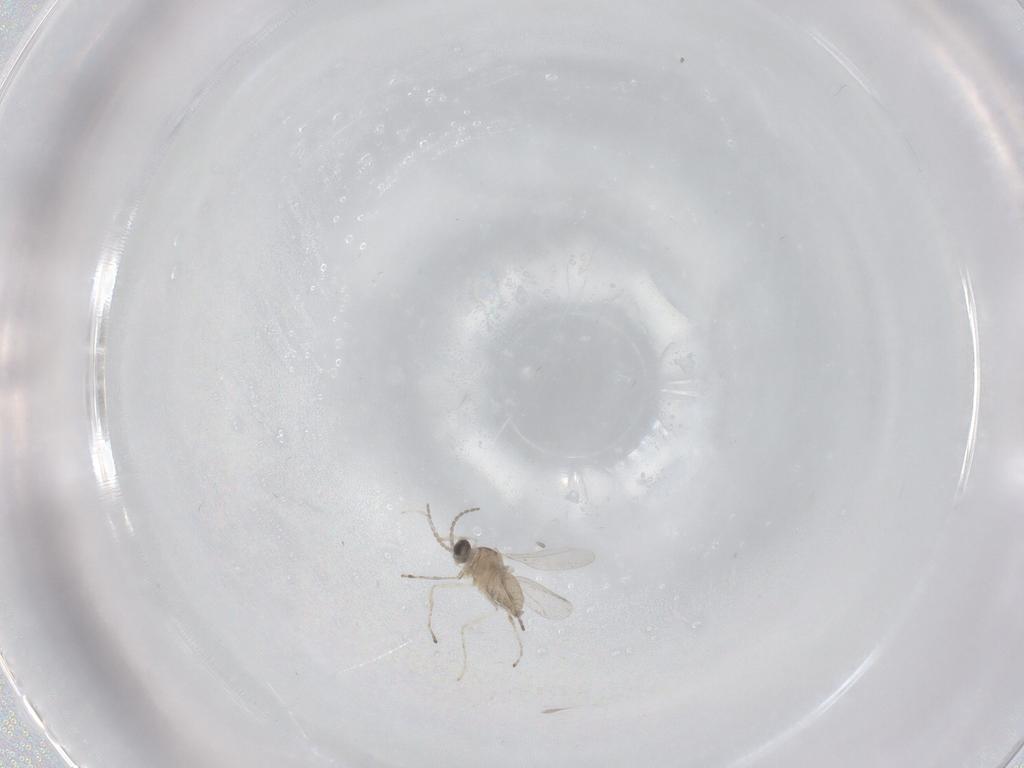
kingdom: Animalia
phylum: Arthropoda
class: Insecta
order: Diptera
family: Cecidomyiidae
